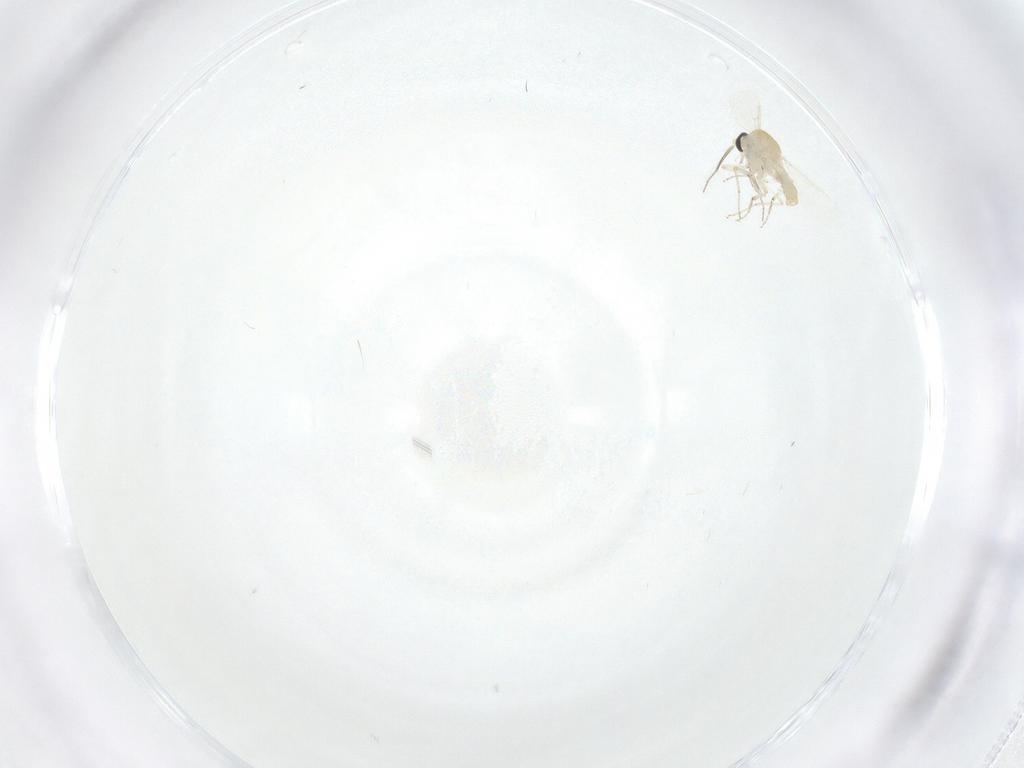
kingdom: Animalia
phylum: Arthropoda
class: Insecta
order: Diptera
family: Ceratopogonidae
